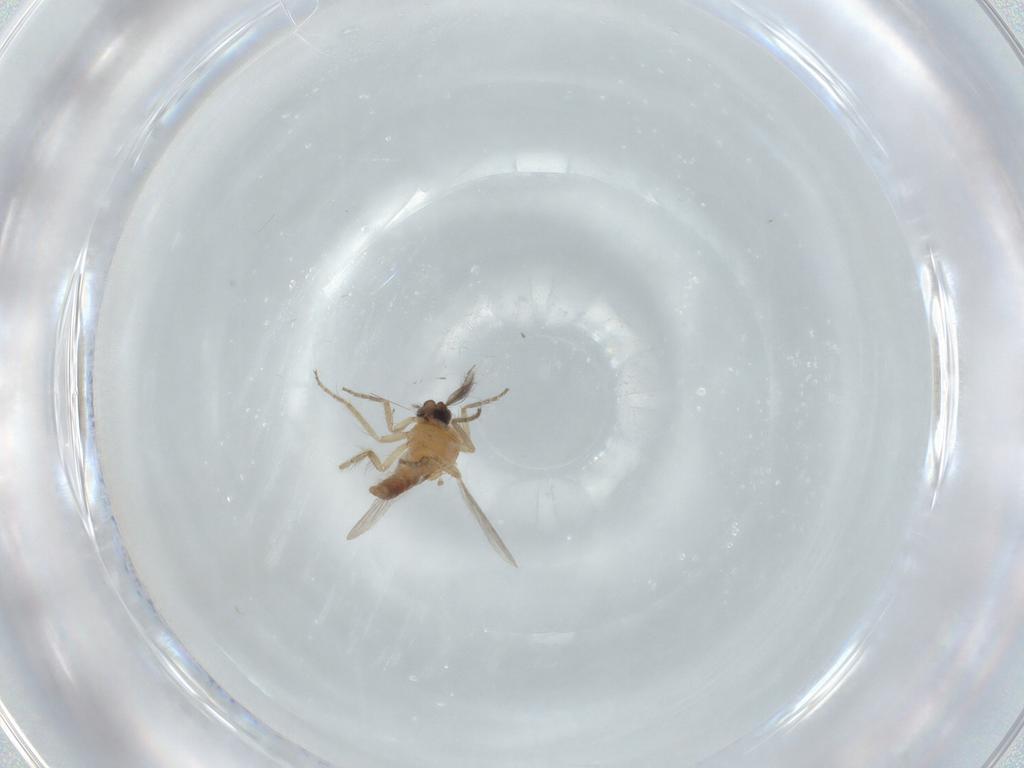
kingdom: Animalia
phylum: Arthropoda
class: Insecta
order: Diptera
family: Ceratopogonidae
